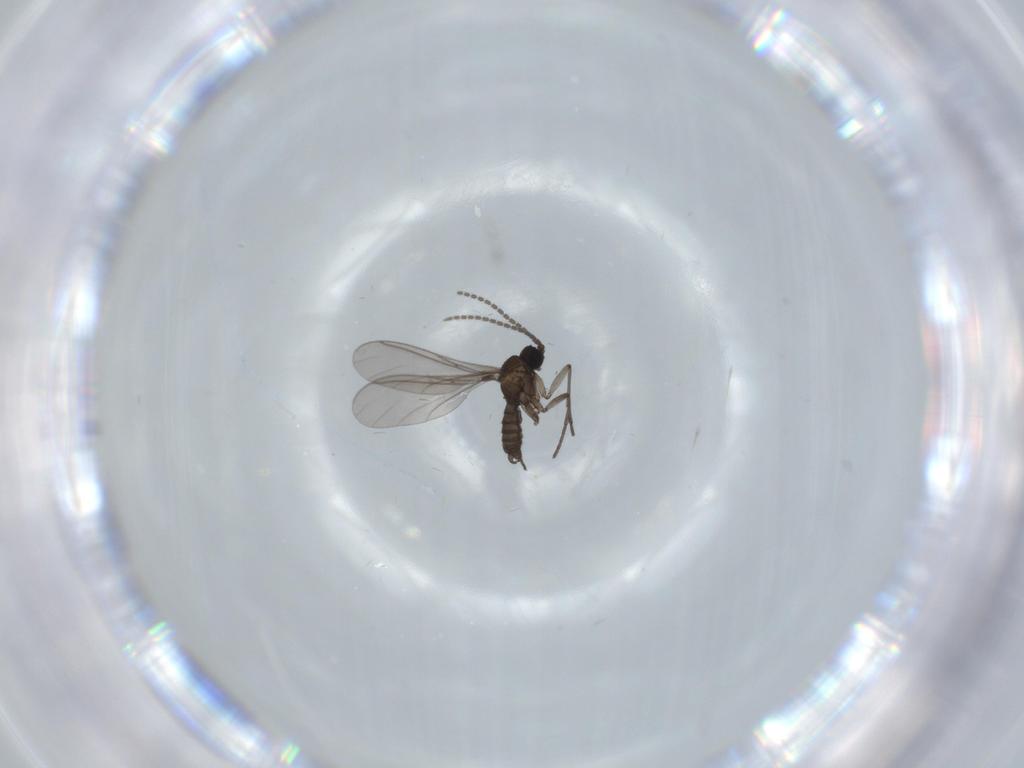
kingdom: Animalia
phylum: Arthropoda
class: Insecta
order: Diptera
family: Sciaridae
